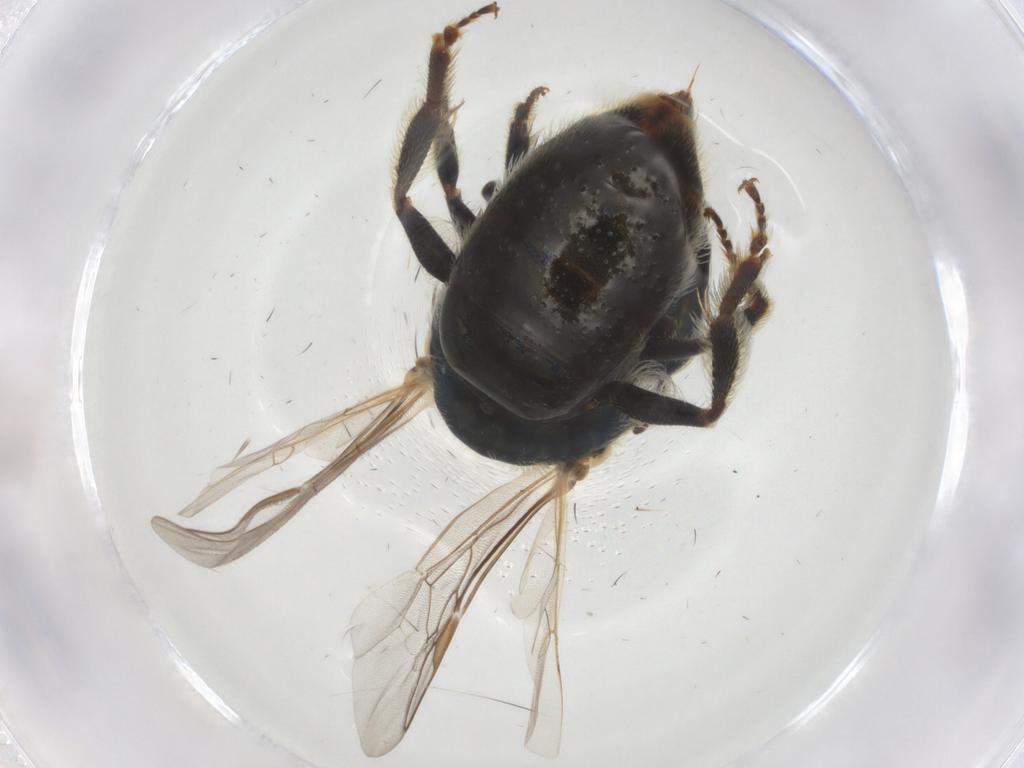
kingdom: Animalia
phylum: Arthropoda
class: Insecta
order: Hymenoptera
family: Halictidae
